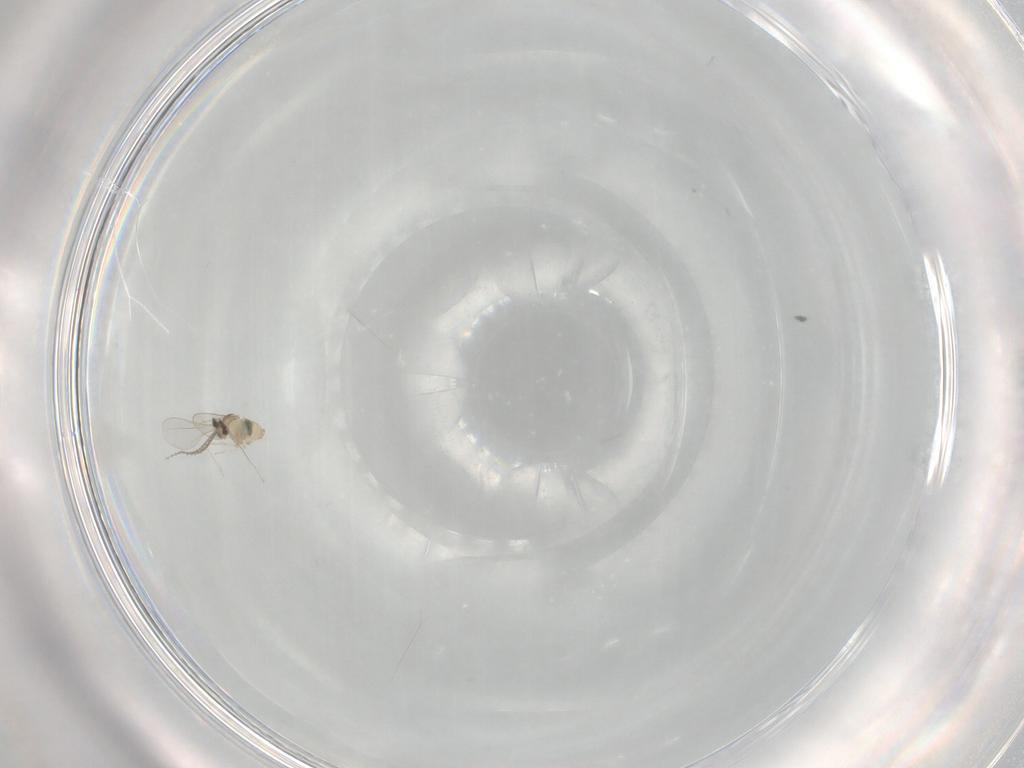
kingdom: Animalia
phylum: Arthropoda
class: Insecta
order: Diptera
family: Cecidomyiidae
